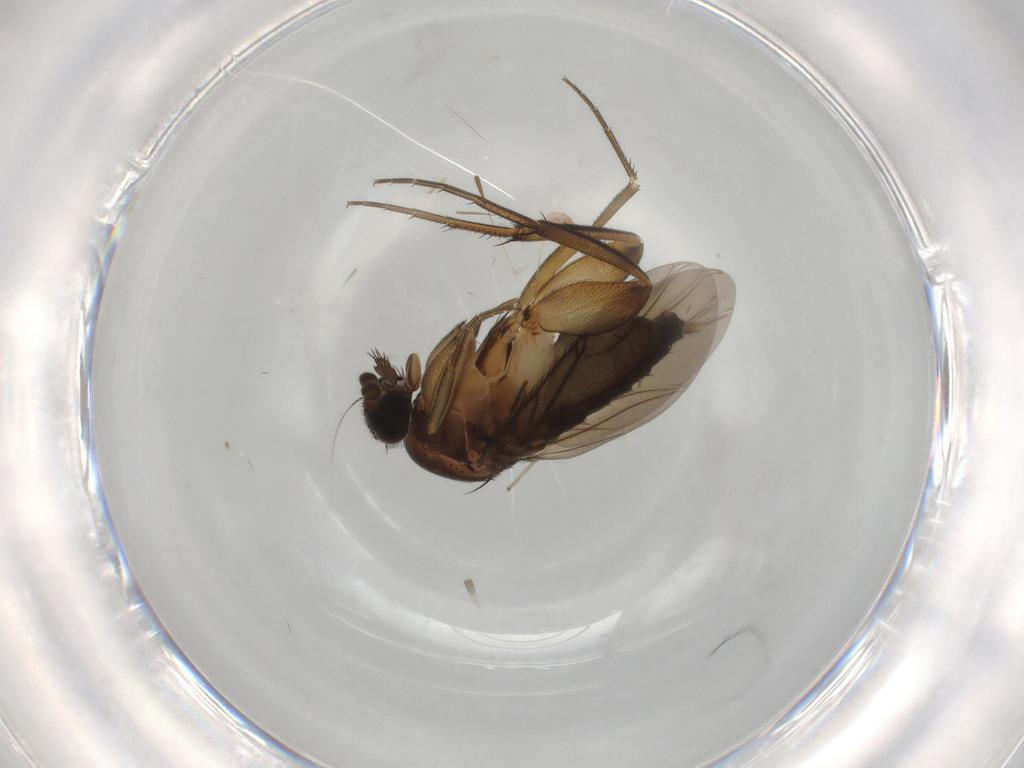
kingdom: Animalia
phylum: Arthropoda
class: Insecta
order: Diptera
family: Phoridae
